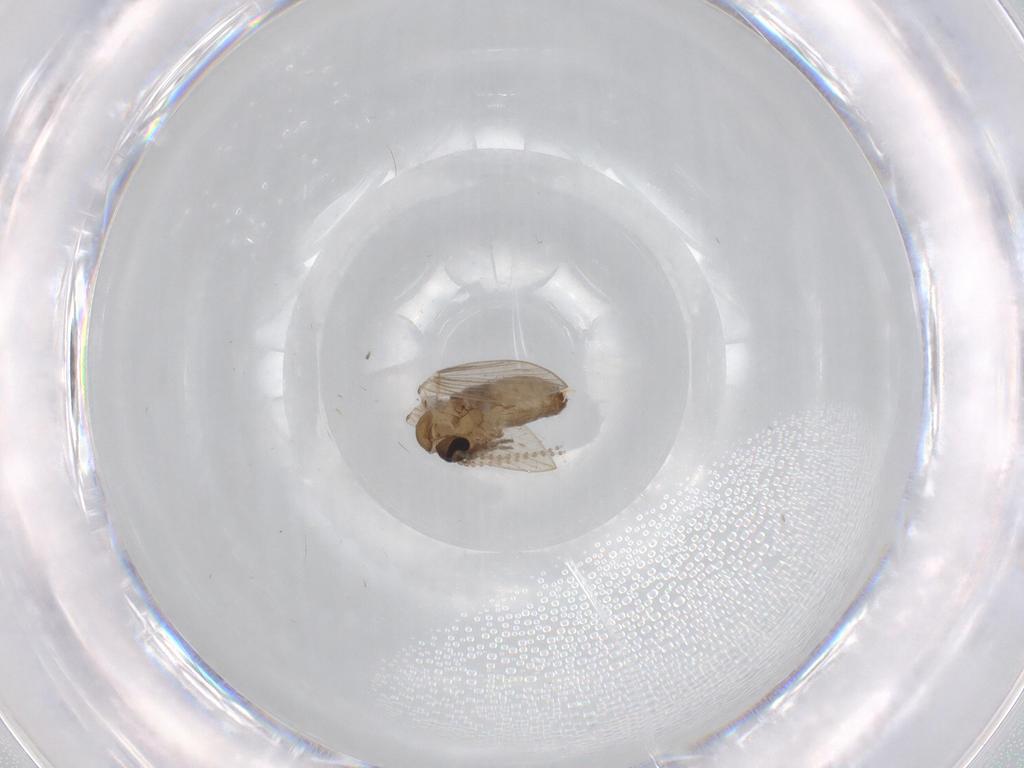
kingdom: Animalia
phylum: Arthropoda
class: Insecta
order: Diptera
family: Psychodidae
